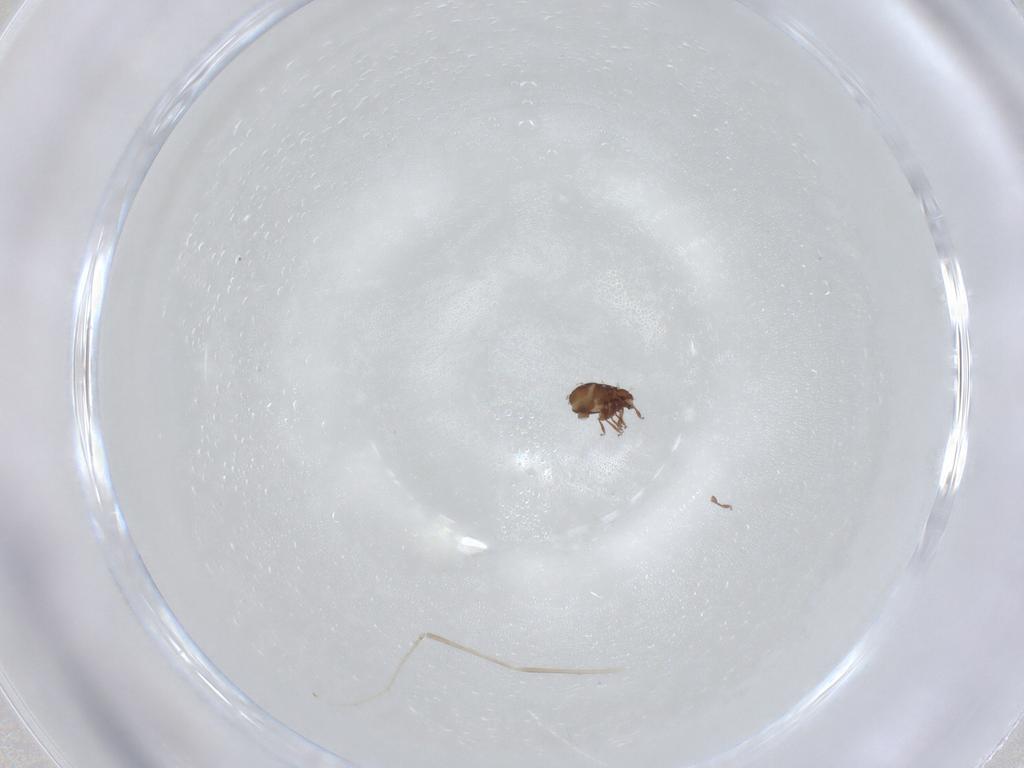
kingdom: Animalia
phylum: Arthropoda
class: Arachnida
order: Sarcoptiformes
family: Scheloribatidae
